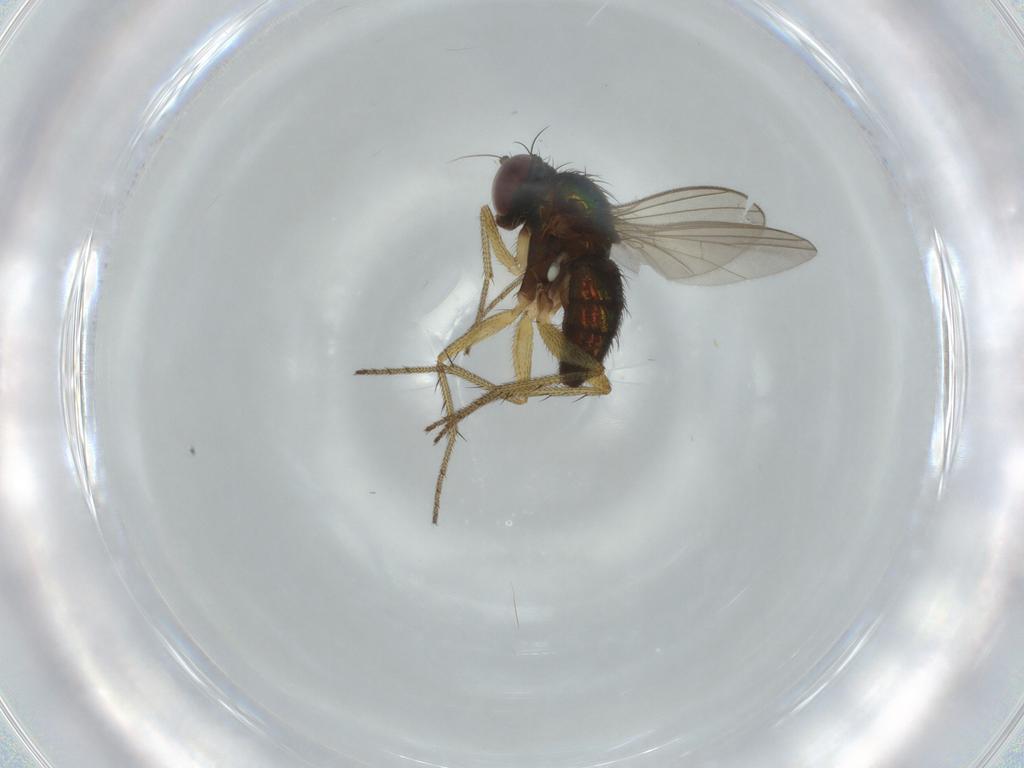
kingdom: Animalia
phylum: Arthropoda
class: Insecta
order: Diptera
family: Dolichopodidae
